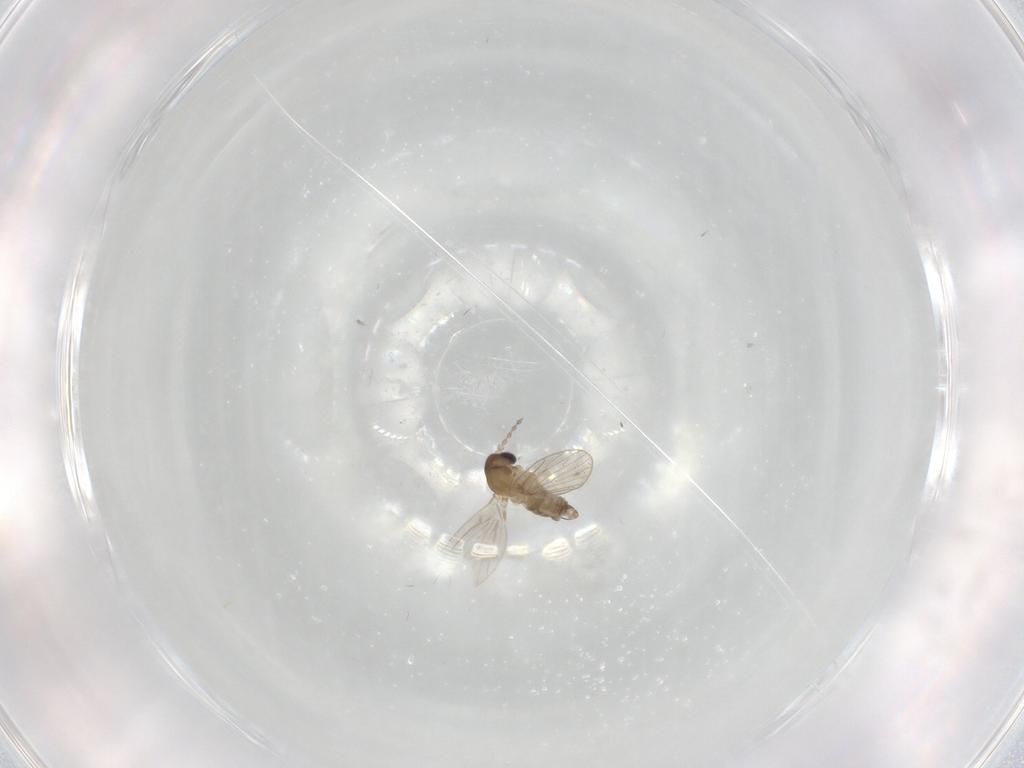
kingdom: Animalia
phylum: Arthropoda
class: Insecta
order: Diptera
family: Psychodidae
